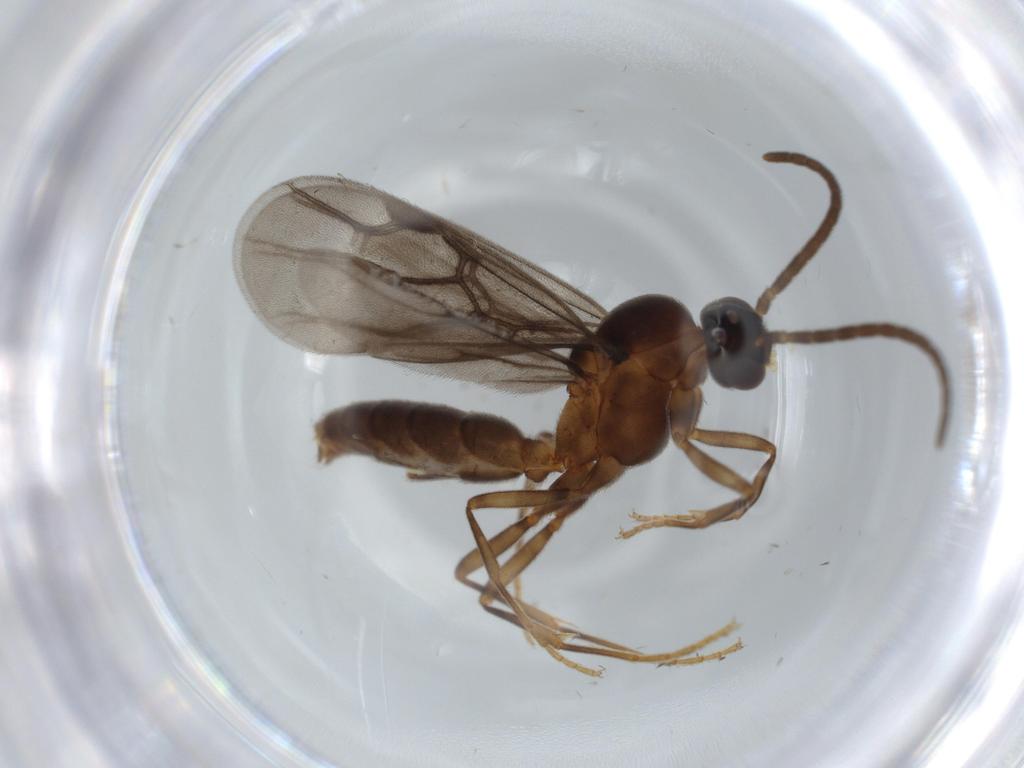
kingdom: Animalia
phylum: Arthropoda
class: Insecta
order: Hymenoptera
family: Formicidae
